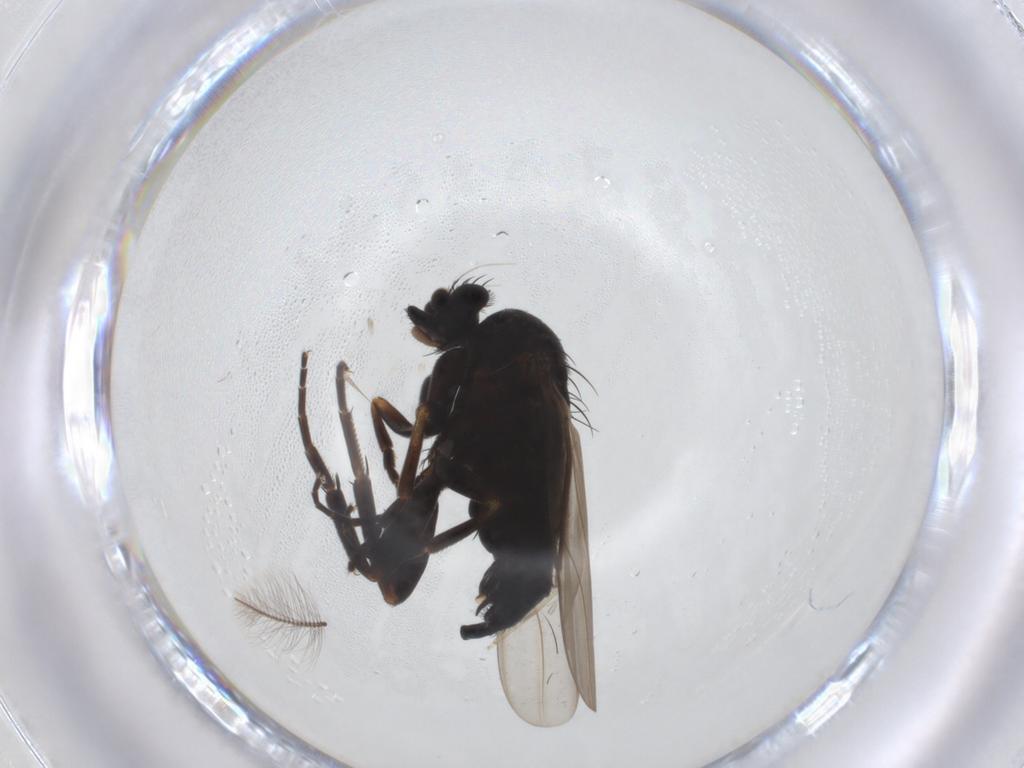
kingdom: Animalia
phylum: Arthropoda
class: Insecta
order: Diptera
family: Phoridae
